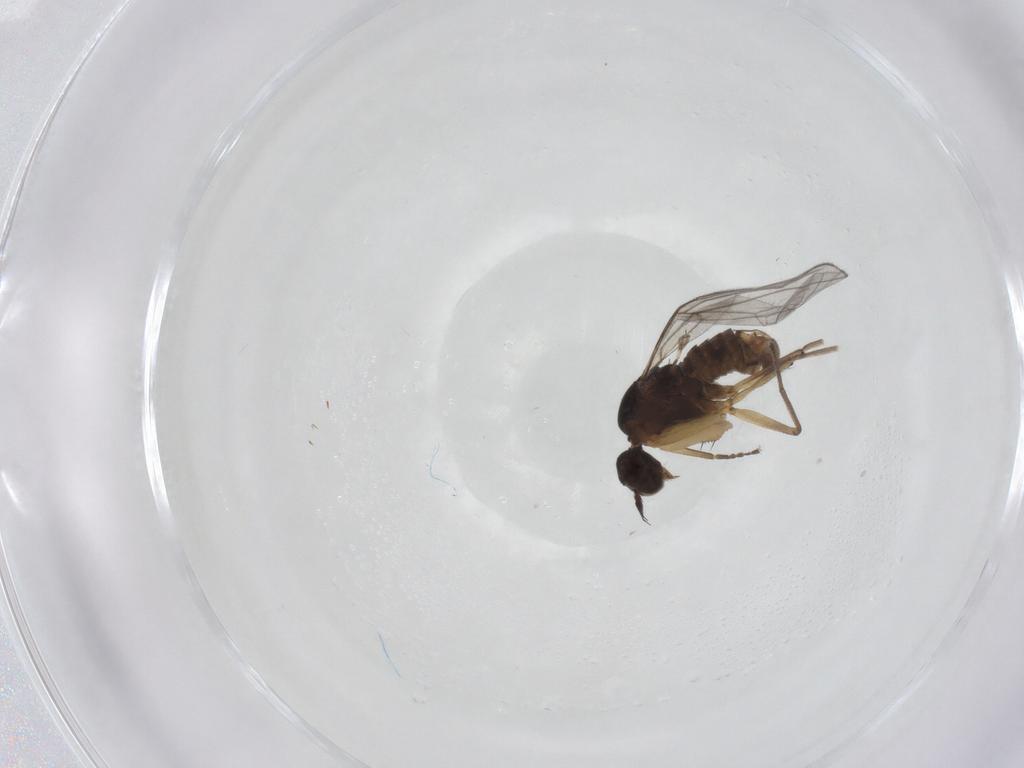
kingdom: Animalia
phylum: Arthropoda
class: Insecta
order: Diptera
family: Empididae
